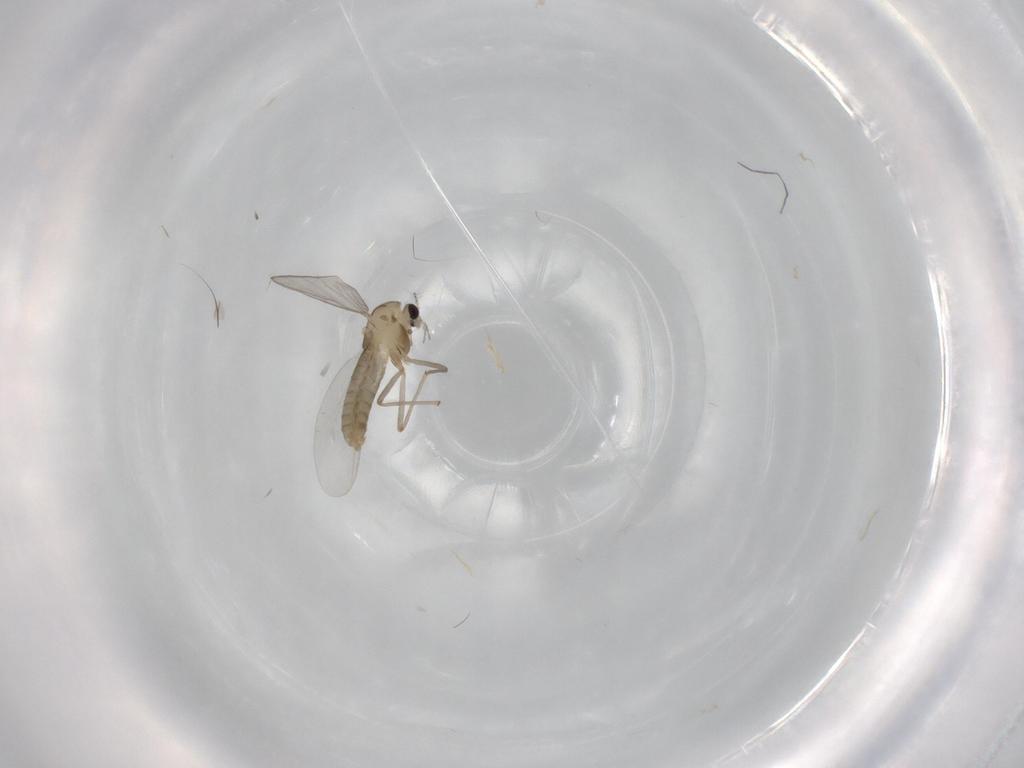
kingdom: Animalia
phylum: Arthropoda
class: Insecta
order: Diptera
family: Chironomidae
